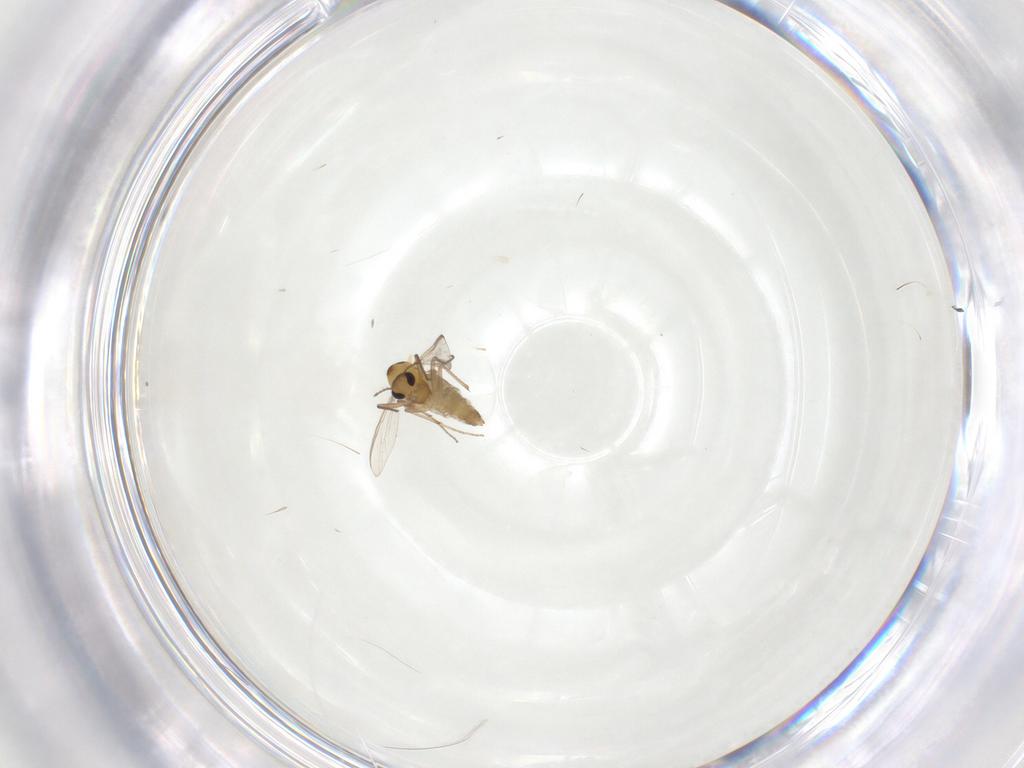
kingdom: Animalia
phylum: Arthropoda
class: Insecta
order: Diptera
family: Chironomidae
